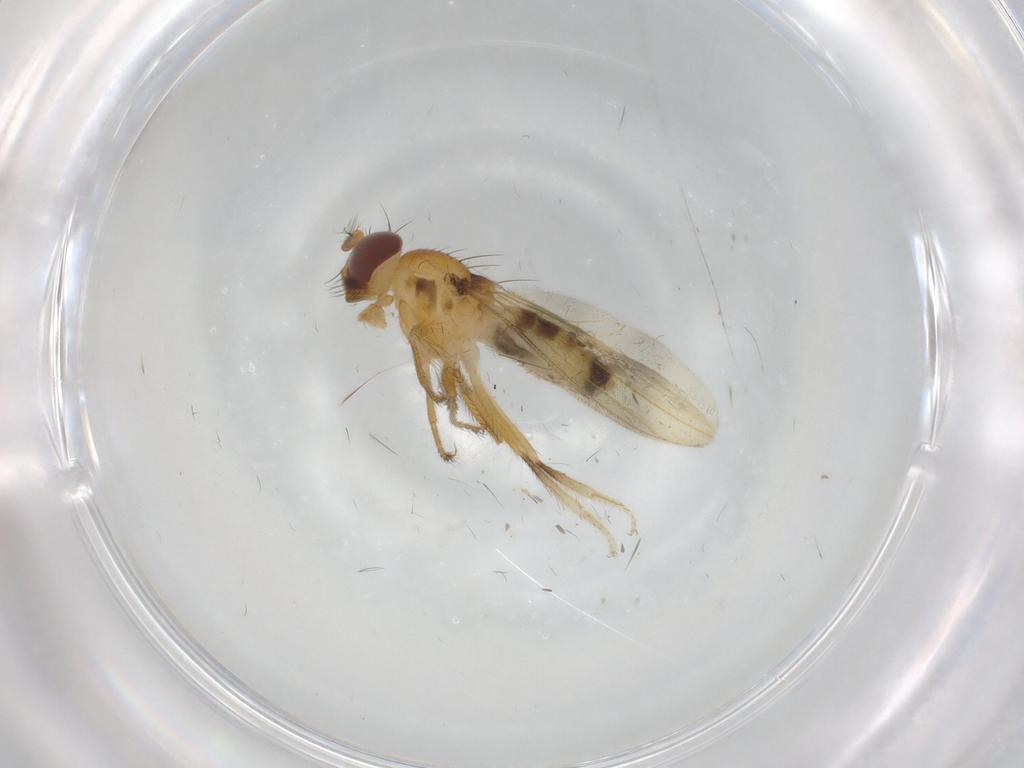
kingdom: Animalia
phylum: Arthropoda
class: Insecta
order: Diptera
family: Periscelididae
